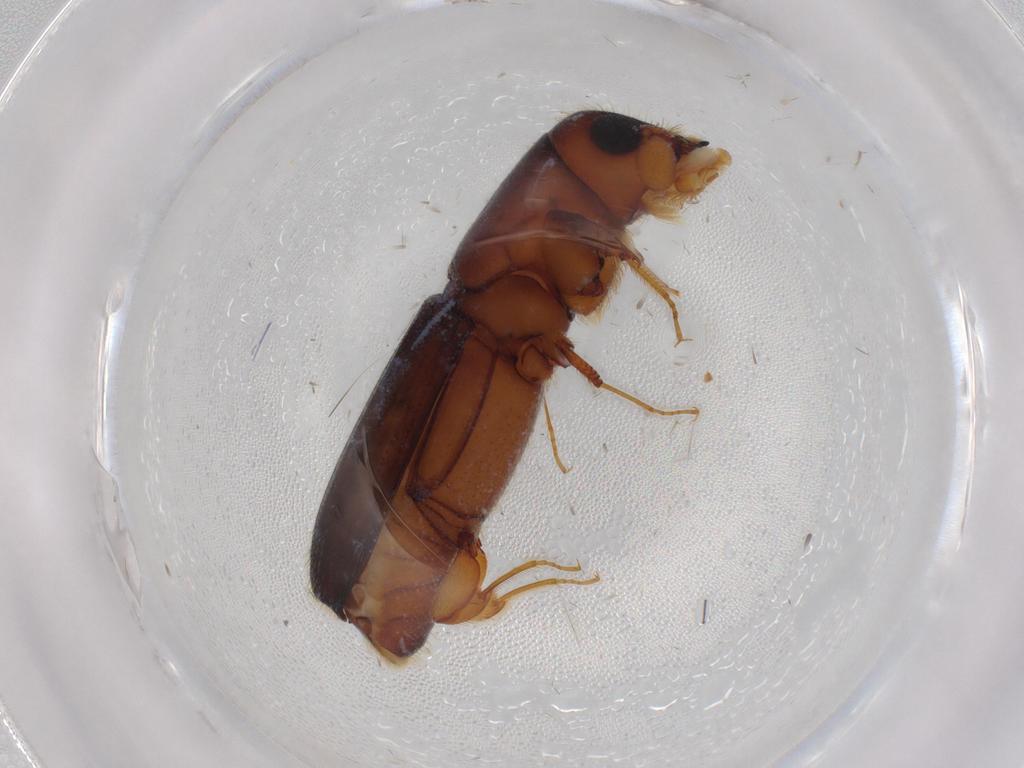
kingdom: Animalia
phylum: Arthropoda
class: Insecta
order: Coleoptera
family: Curculionidae
